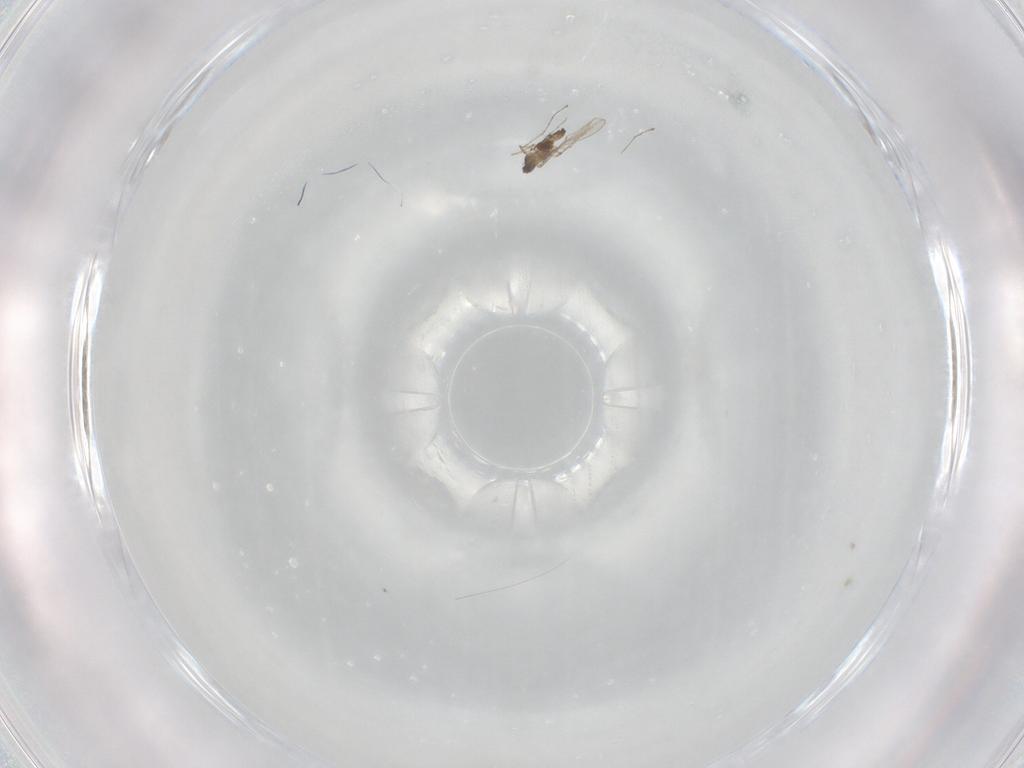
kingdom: Animalia
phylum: Arthropoda
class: Insecta
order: Diptera
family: Cecidomyiidae
